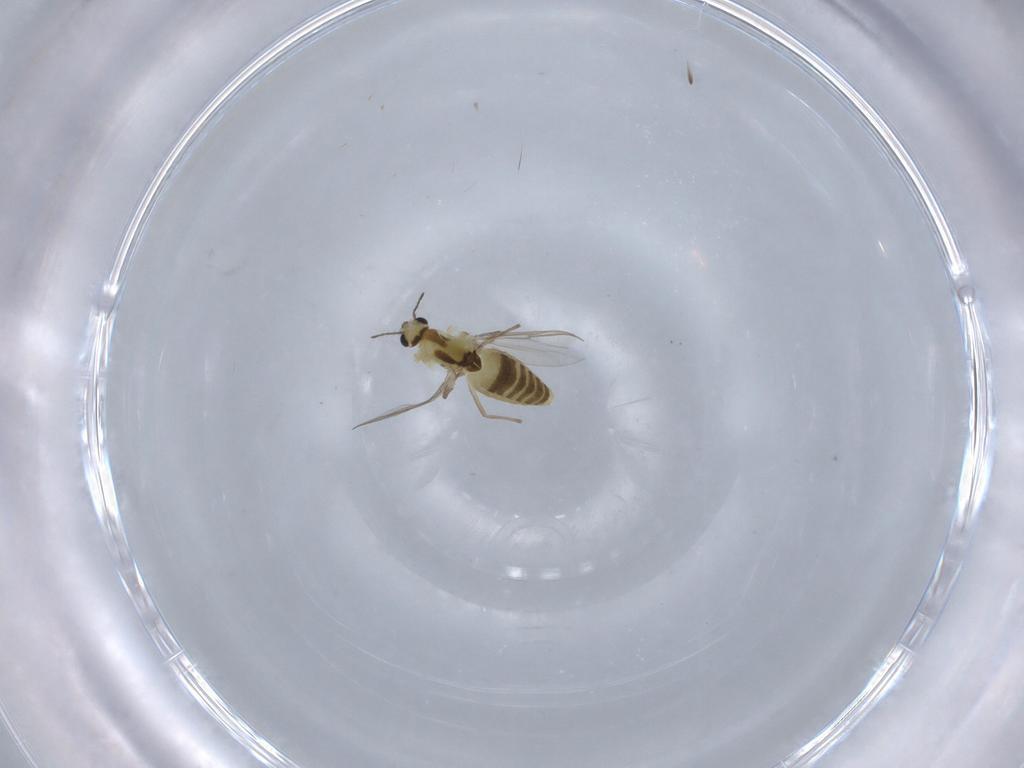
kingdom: Animalia
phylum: Arthropoda
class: Insecta
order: Diptera
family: Chironomidae
